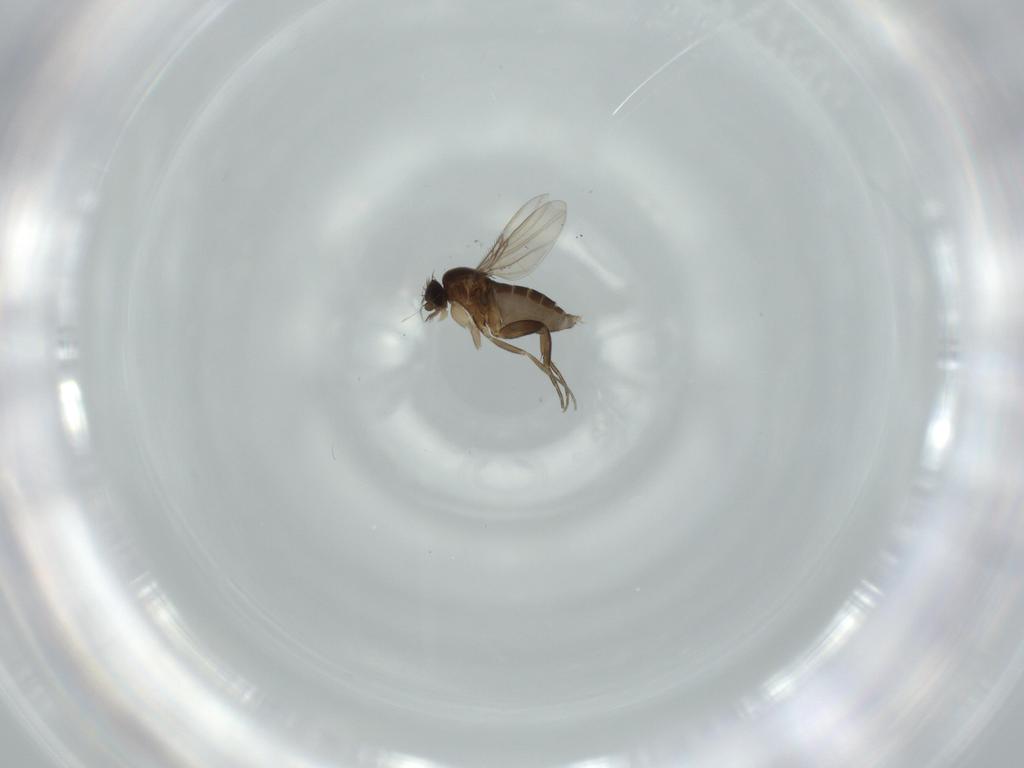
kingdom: Animalia
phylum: Arthropoda
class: Insecta
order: Diptera
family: Phoridae
